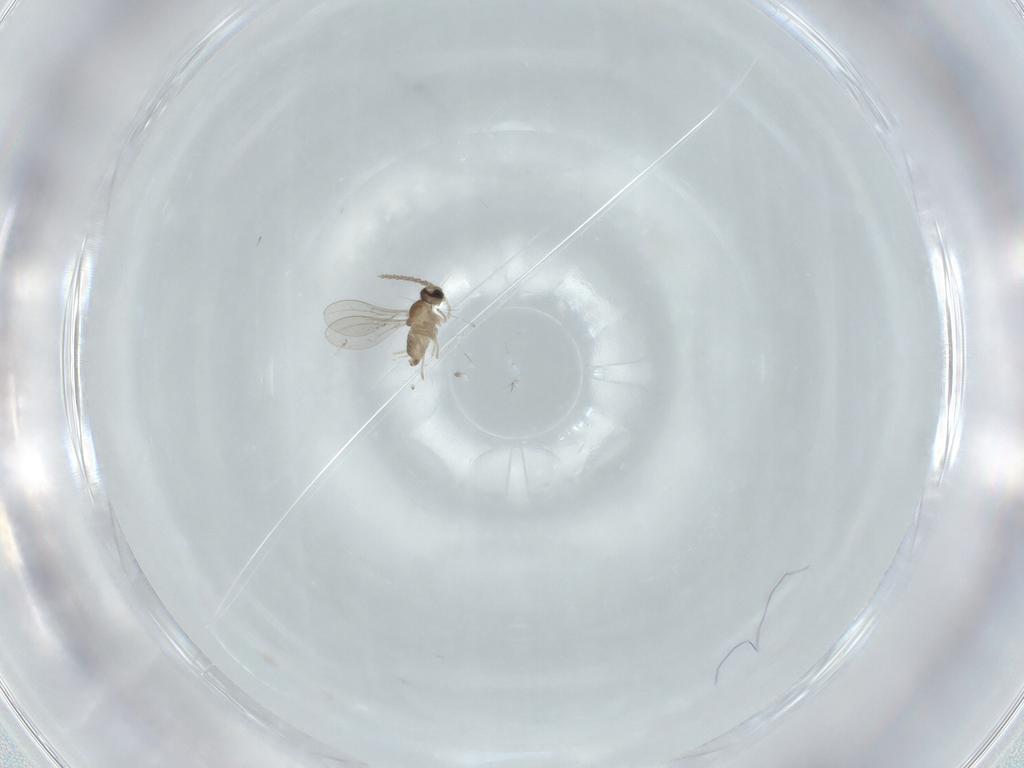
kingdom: Animalia
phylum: Arthropoda
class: Insecta
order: Diptera
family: Cecidomyiidae
